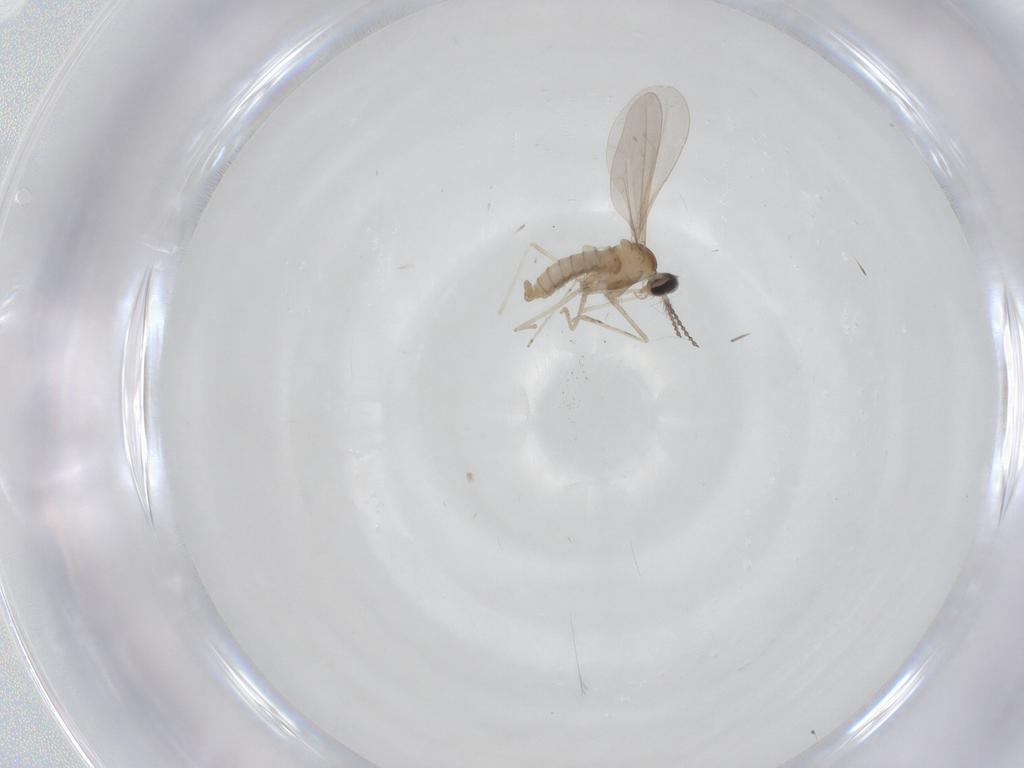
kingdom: Animalia
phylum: Arthropoda
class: Insecta
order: Diptera
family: Cecidomyiidae
